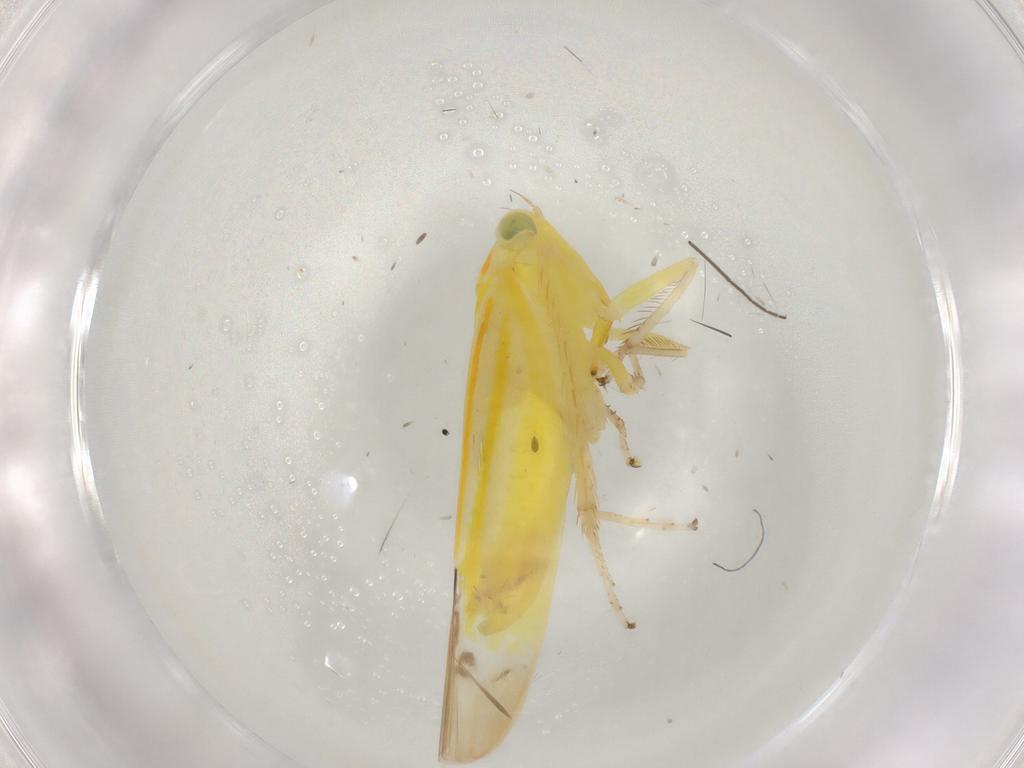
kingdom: Animalia
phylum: Arthropoda
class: Insecta
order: Hemiptera
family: Cicadellidae
